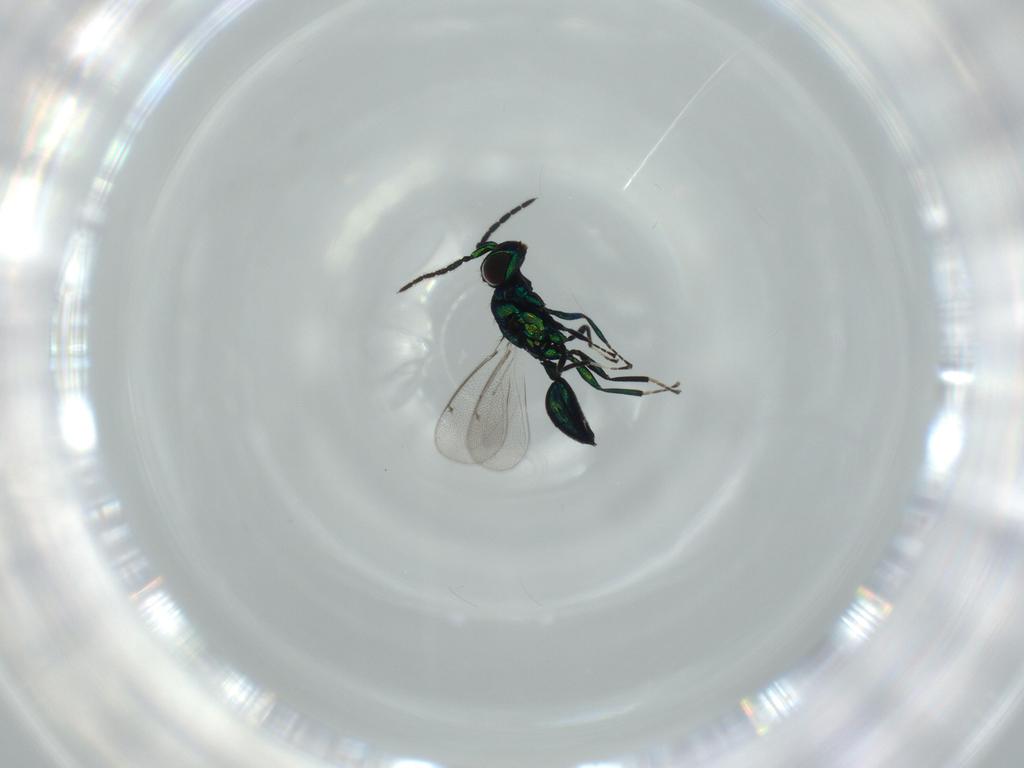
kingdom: Animalia
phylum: Arthropoda
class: Insecta
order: Hymenoptera
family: Eulophidae
